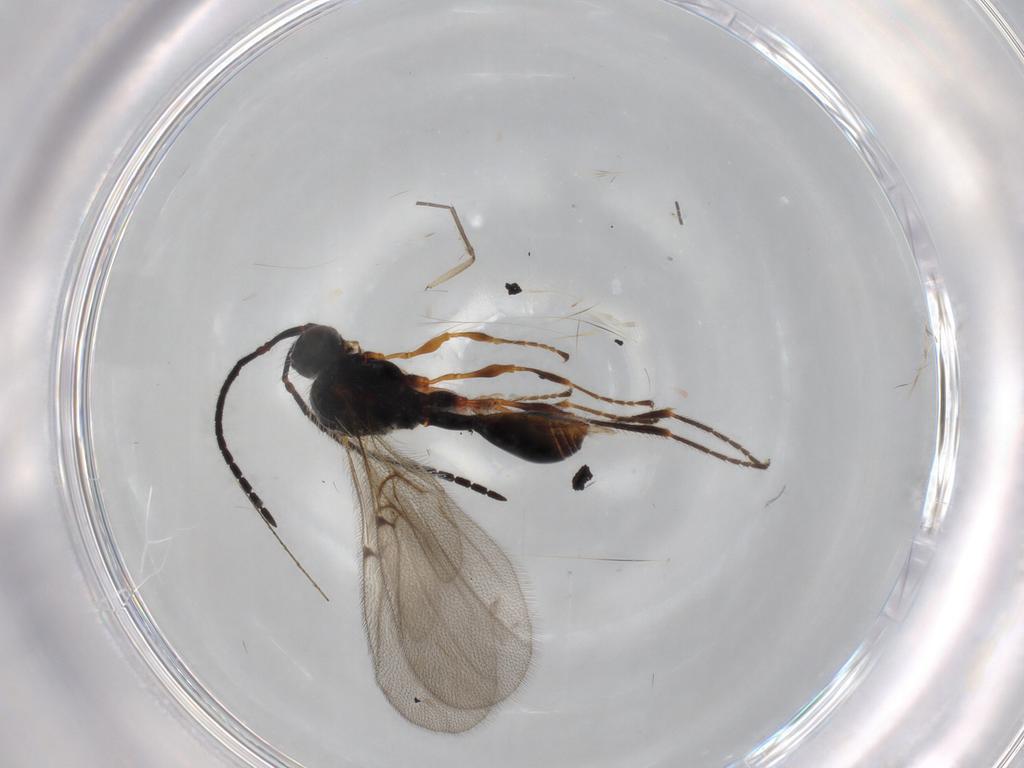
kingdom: Animalia
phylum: Arthropoda
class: Insecta
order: Hymenoptera
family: Diapriidae
